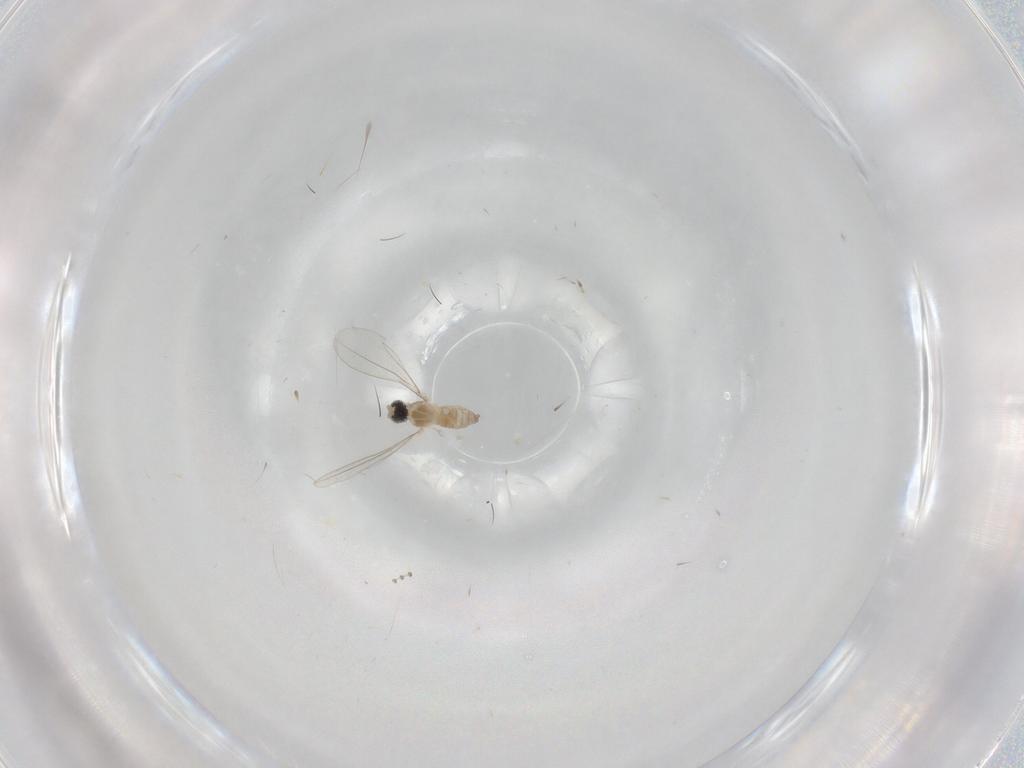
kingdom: Animalia
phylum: Arthropoda
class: Insecta
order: Diptera
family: Cecidomyiidae
